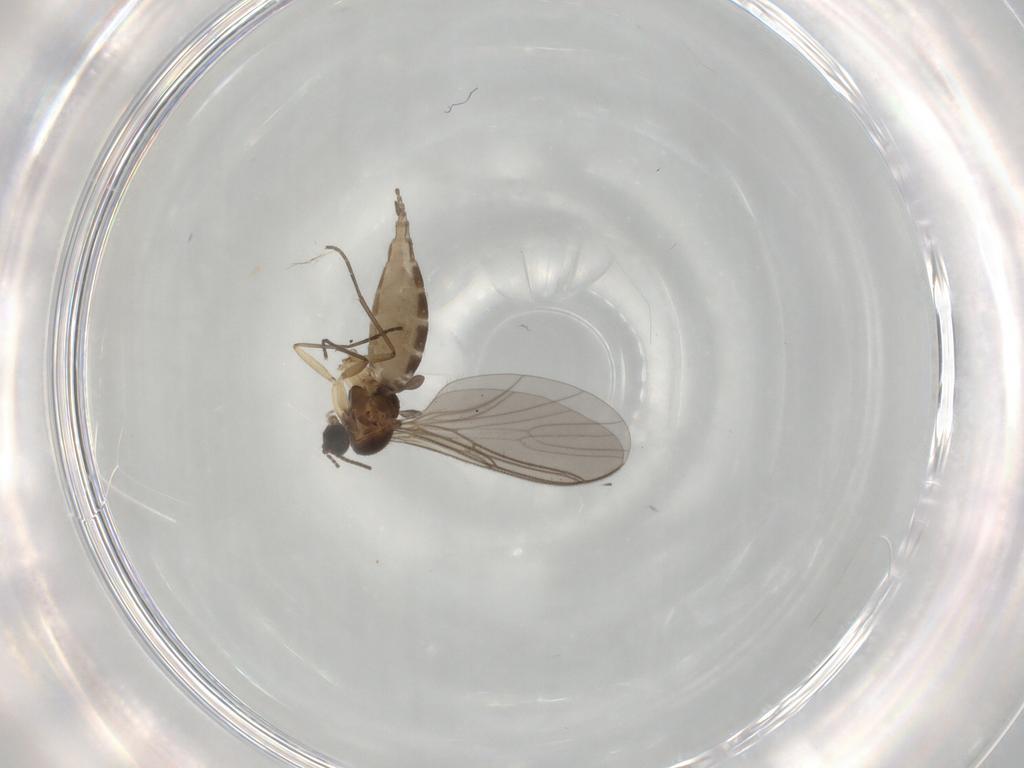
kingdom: Animalia
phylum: Arthropoda
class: Insecta
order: Diptera
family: Sciaridae
